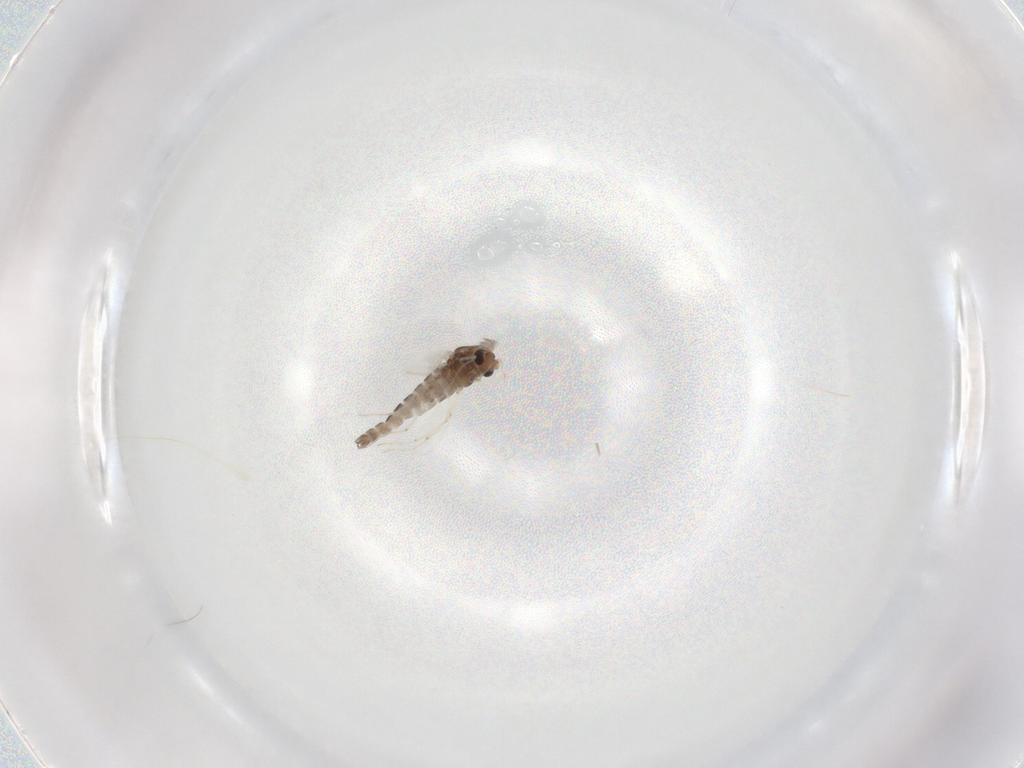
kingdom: Animalia
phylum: Arthropoda
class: Insecta
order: Diptera
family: Chironomidae
